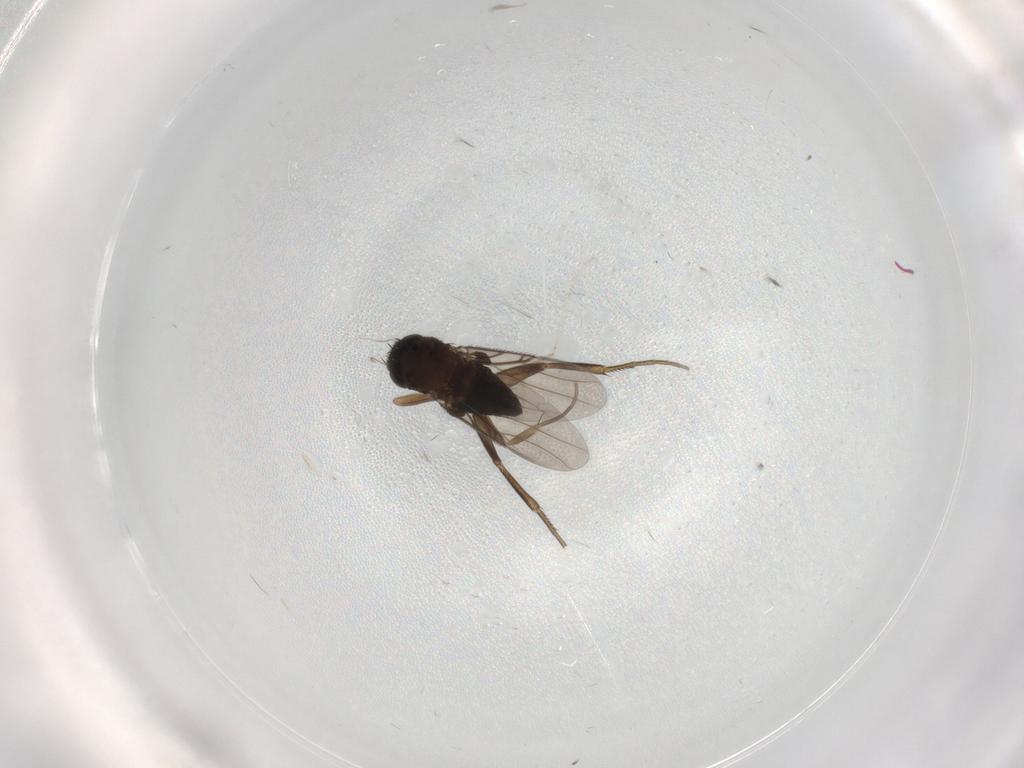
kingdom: Animalia
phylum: Arthropoda
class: Insecta
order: Diptera
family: Phoridae
